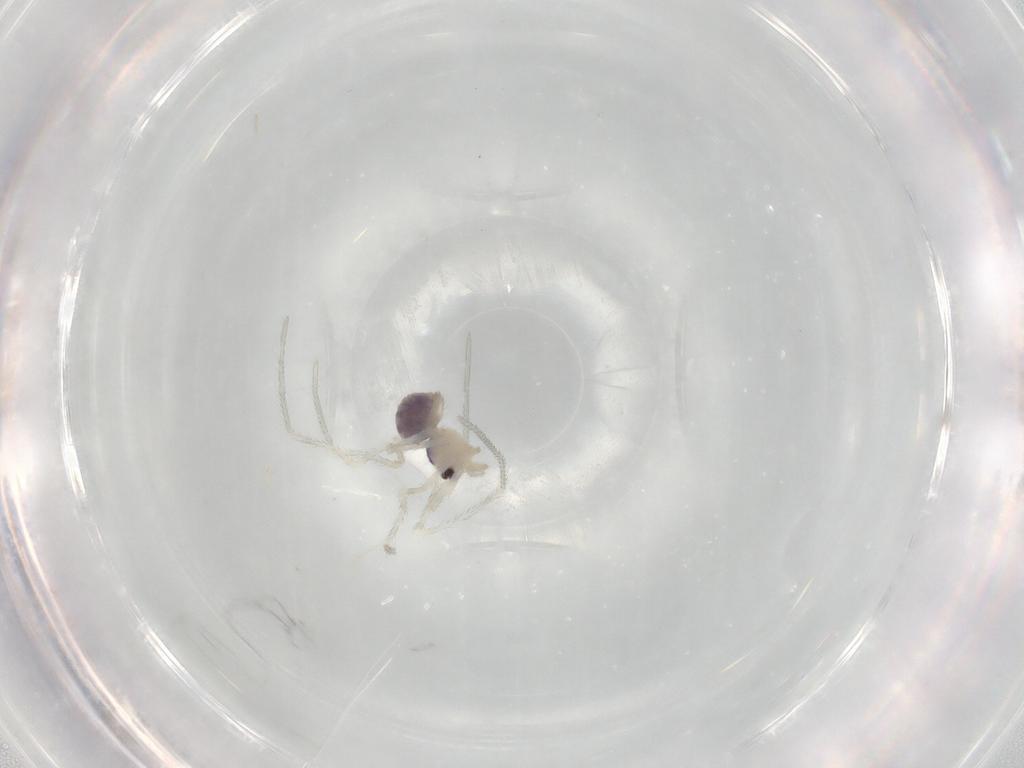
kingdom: Animalia
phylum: Arthropoda
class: Arachnida
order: Araneae
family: Pholcidae
